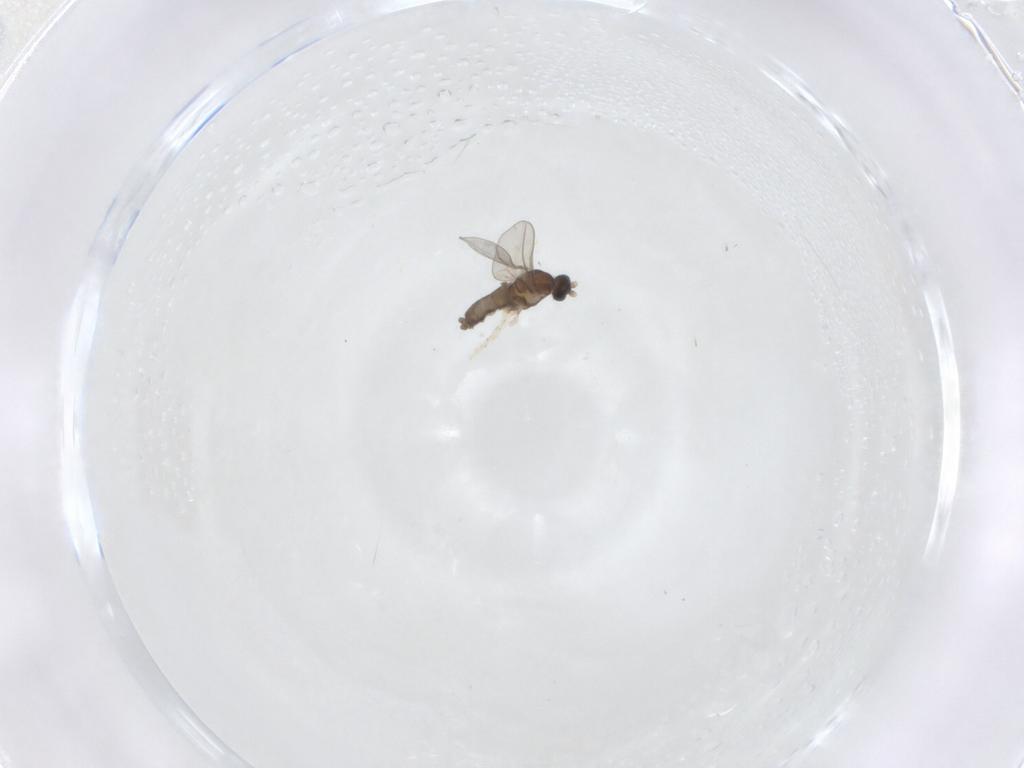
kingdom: Animalia
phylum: Arthropoda
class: Insecta
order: Diptera
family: Cecidomyiidae
